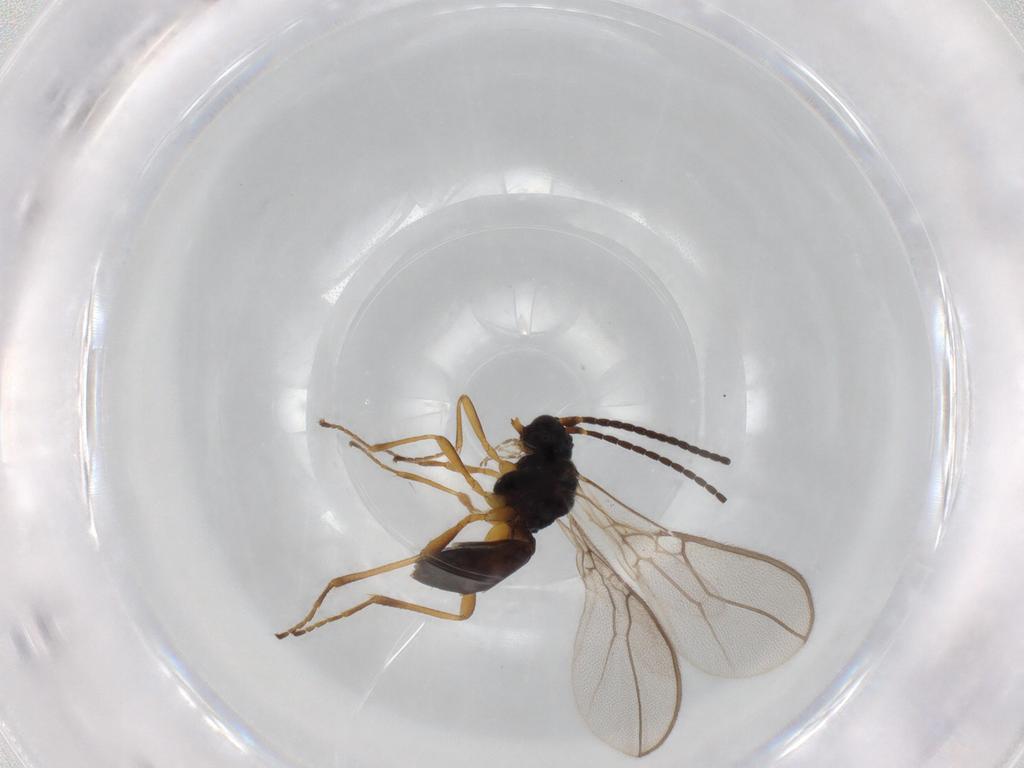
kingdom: Animalia
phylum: Arthropoda
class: Insecta
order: Hymenoptera
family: Braconidae
